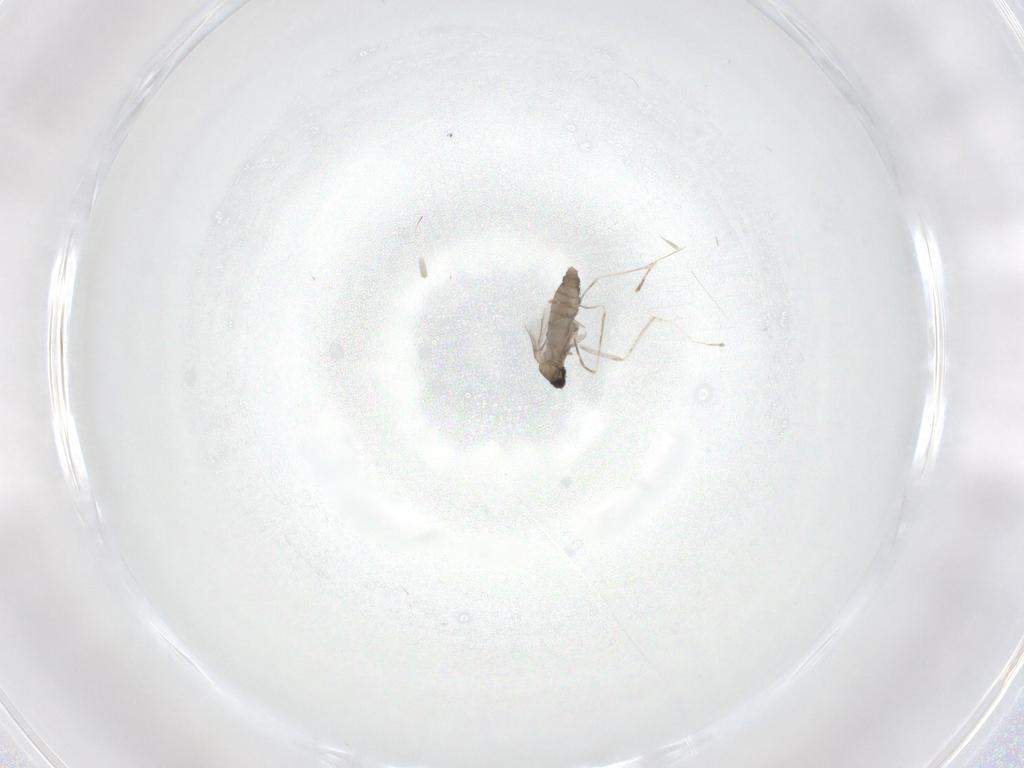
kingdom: Animalia
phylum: Arthropoda
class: Insecta
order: Diptera
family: Cecidomyiidae
